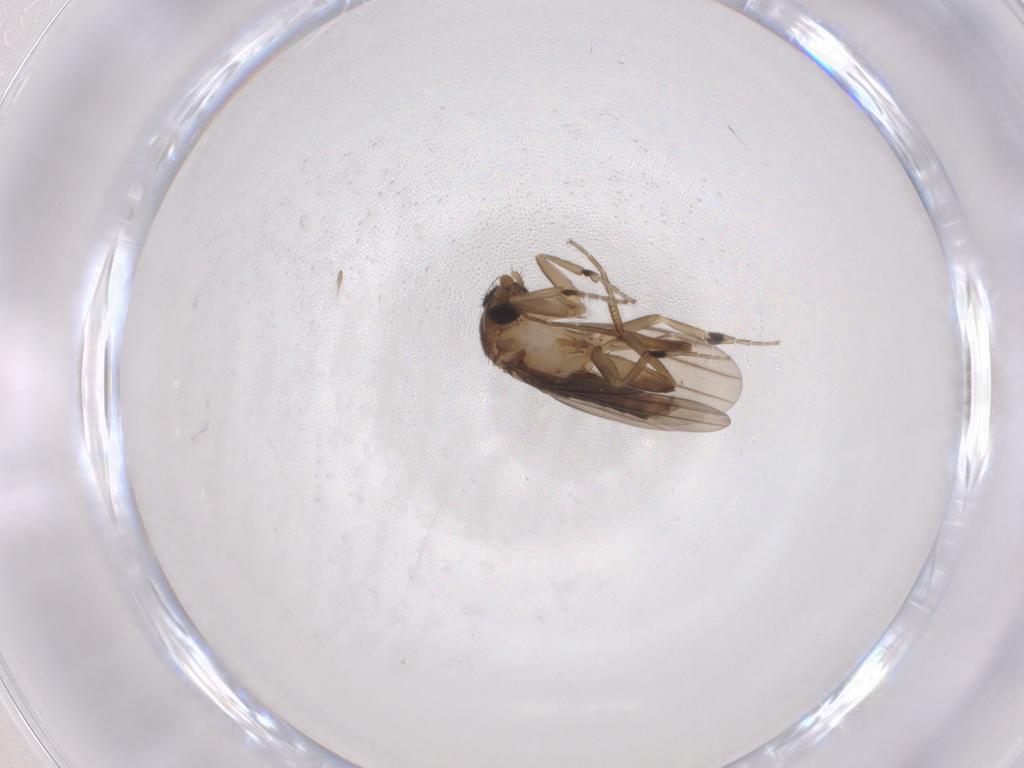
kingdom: Animalia
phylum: Arthropoda
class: Insecta
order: Diptera
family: Phoridae
